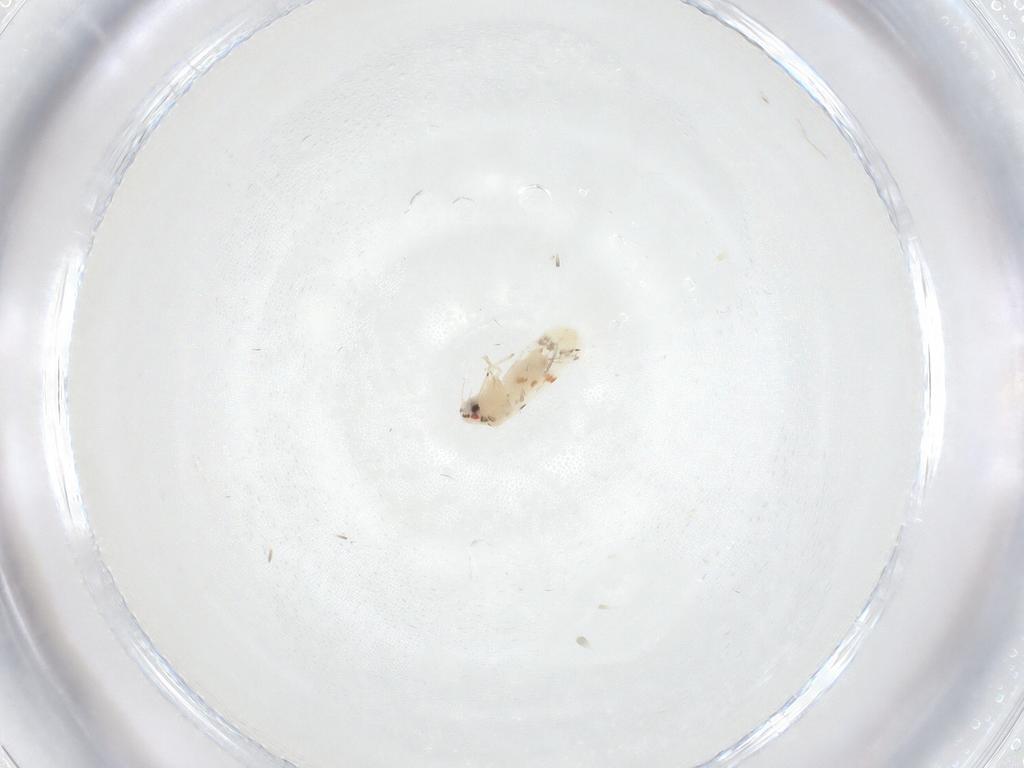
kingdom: Animalia
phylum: Arthropoda
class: Insecta
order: Hemiptera
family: Aleyrodidae
